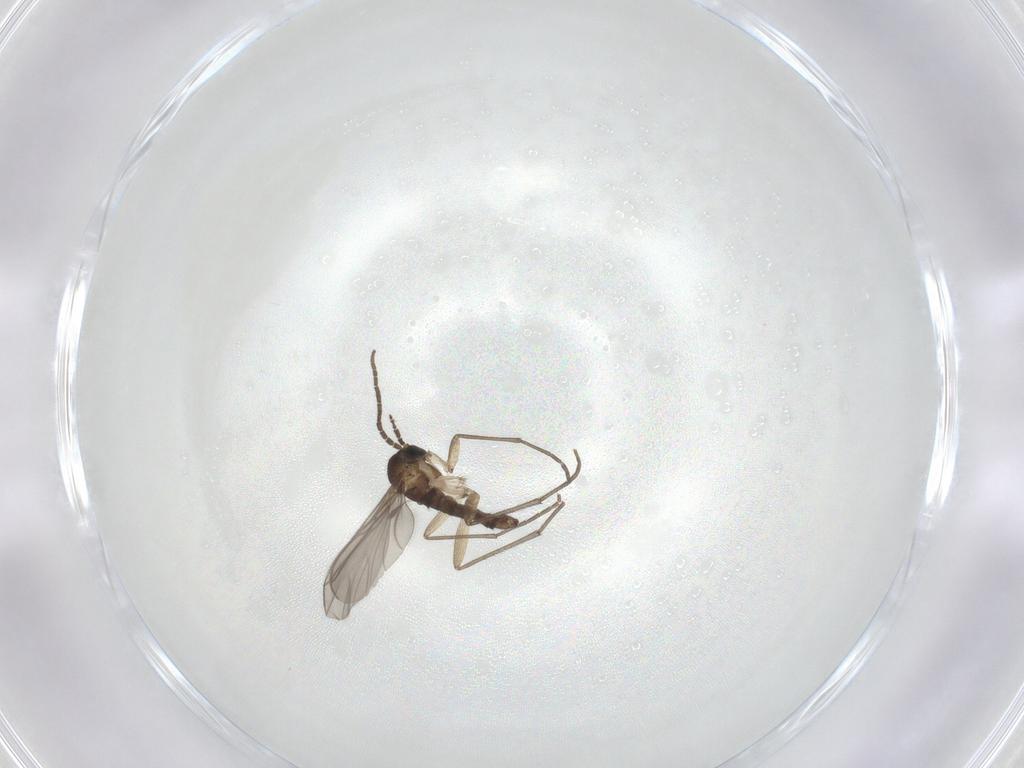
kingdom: Animalia
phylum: Arthropoda
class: Insecta
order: Diptera
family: Sciaridae
